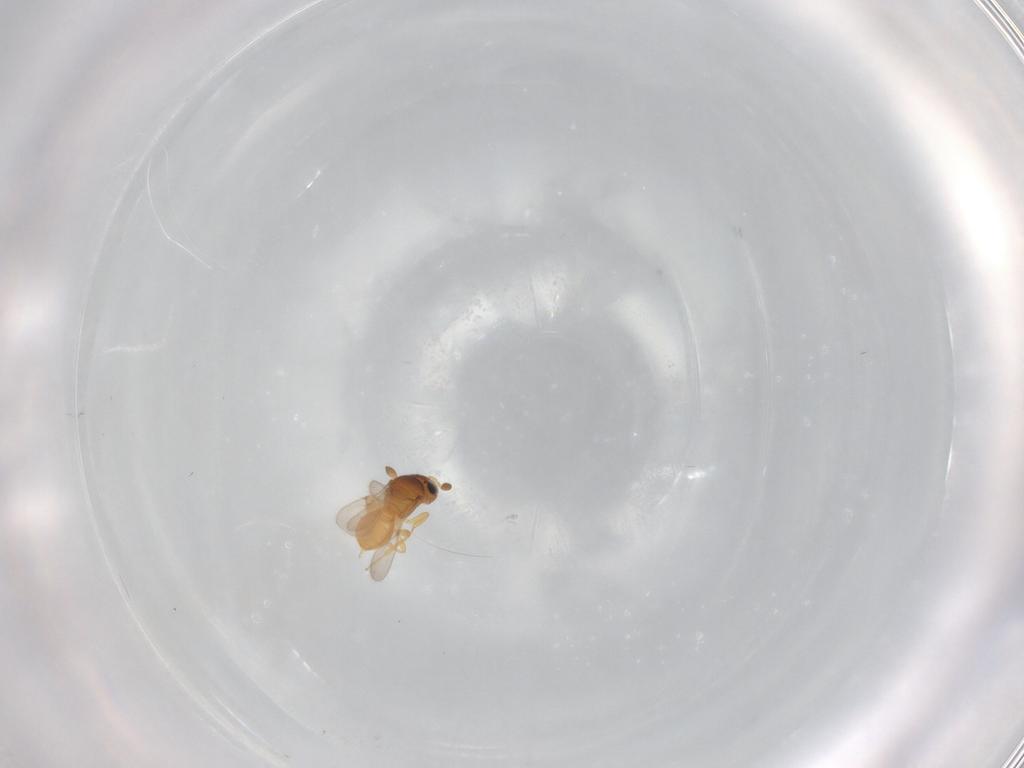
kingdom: Animalia
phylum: Arthropoda
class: Insecta
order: Hymenoptera
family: Scelionidae
